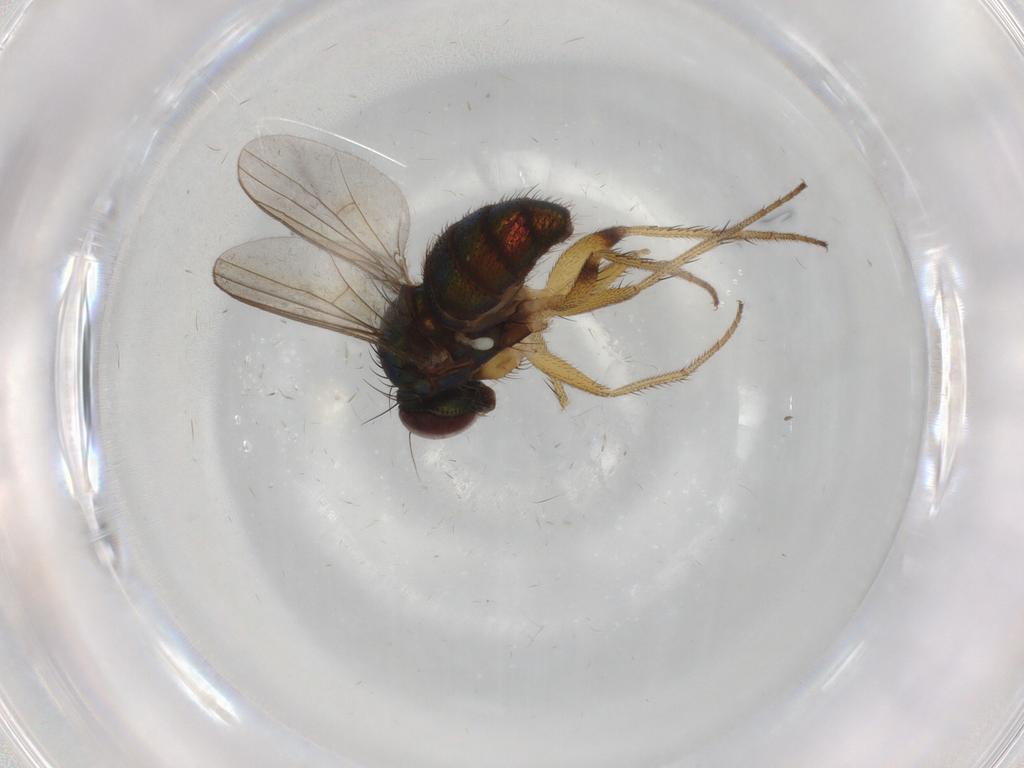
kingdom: Animalia
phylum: Arthropoda
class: Insecta
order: Diptera
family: Dolichopodidae
